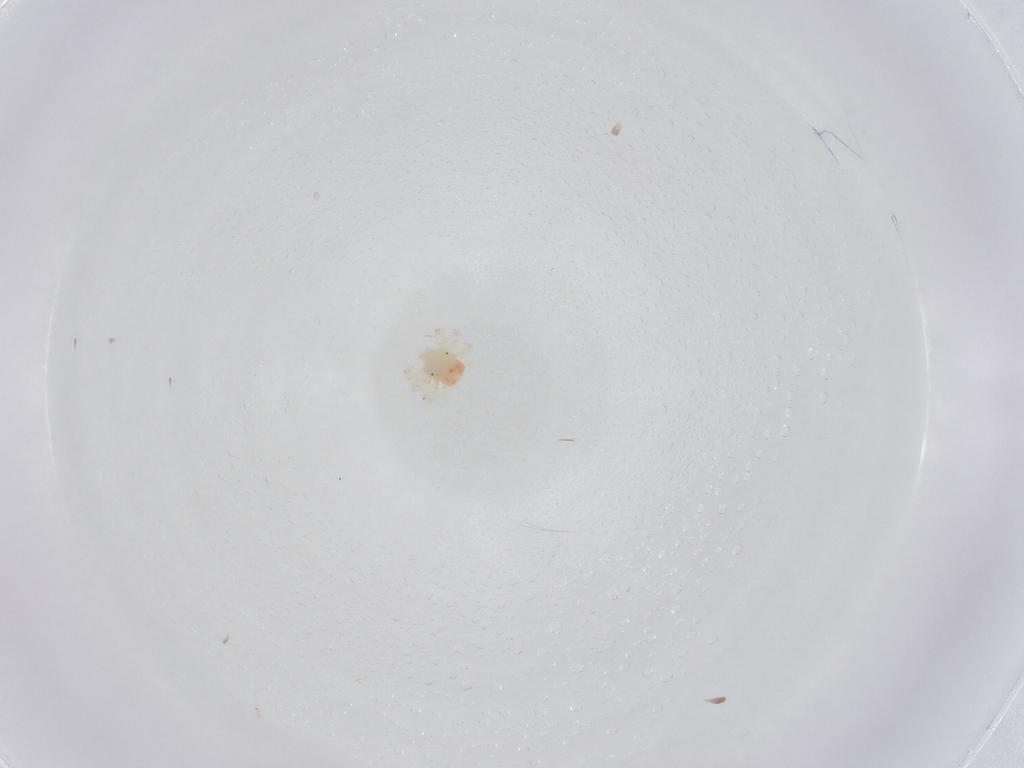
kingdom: Animalia
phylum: Arthropoda
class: Arachnida
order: Trombidiformes
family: Anystidae
